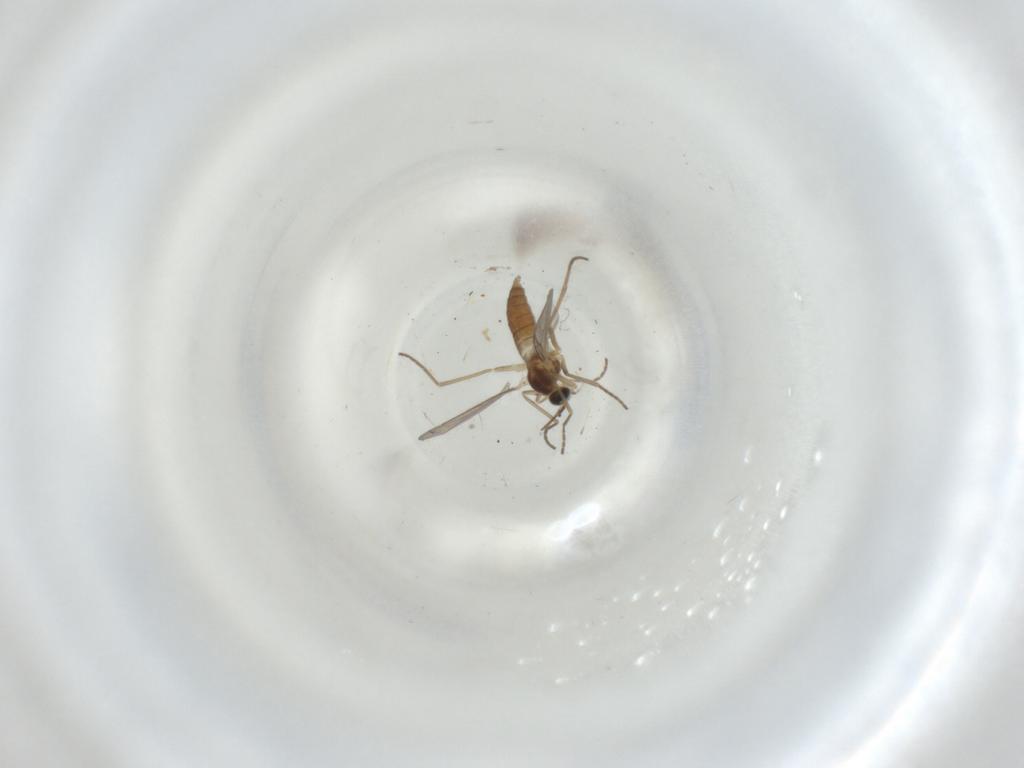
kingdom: Animalia
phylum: Arthropoda
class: Insecta
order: Diptera
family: Cecidomyiidae
